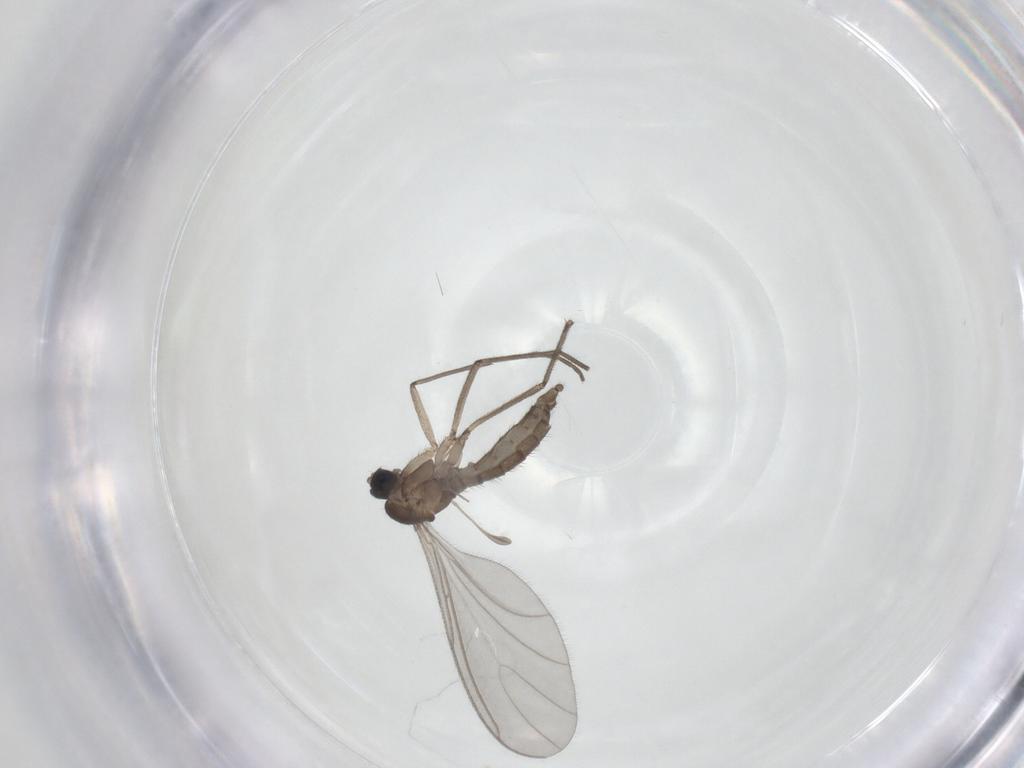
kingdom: Animalia
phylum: Arthropoda
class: Insecta
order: Diptera
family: Sciaridae
